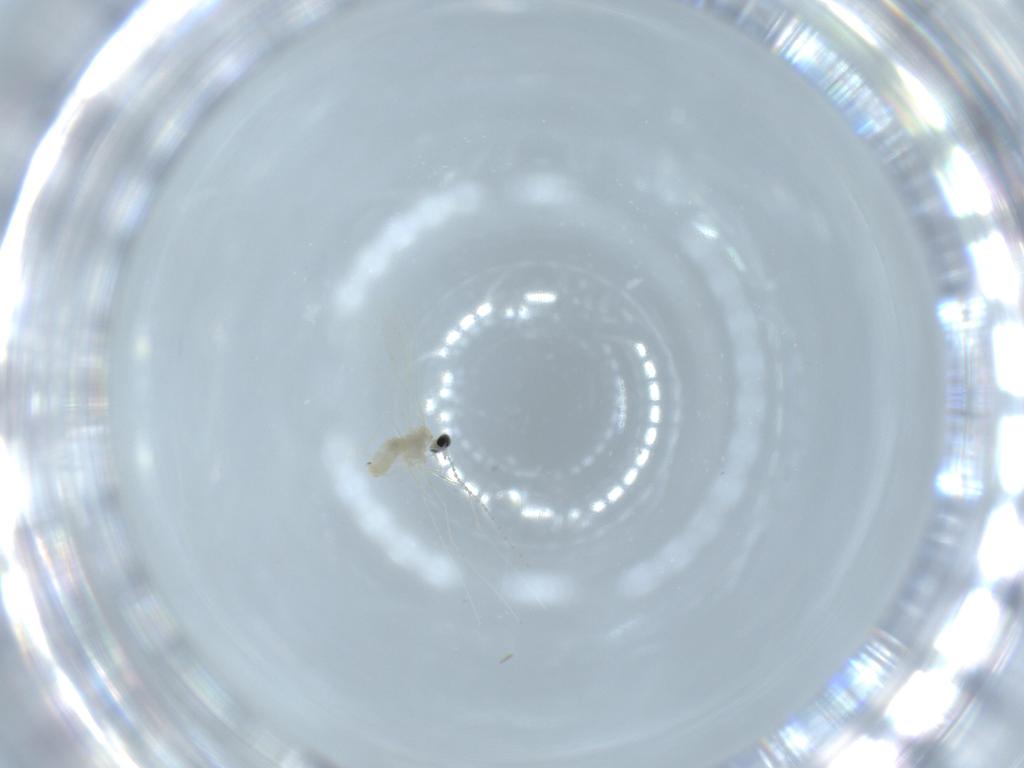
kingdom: Animalia
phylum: Arthropoda
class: Insecta
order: Diptera
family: Cecidomyiidae
